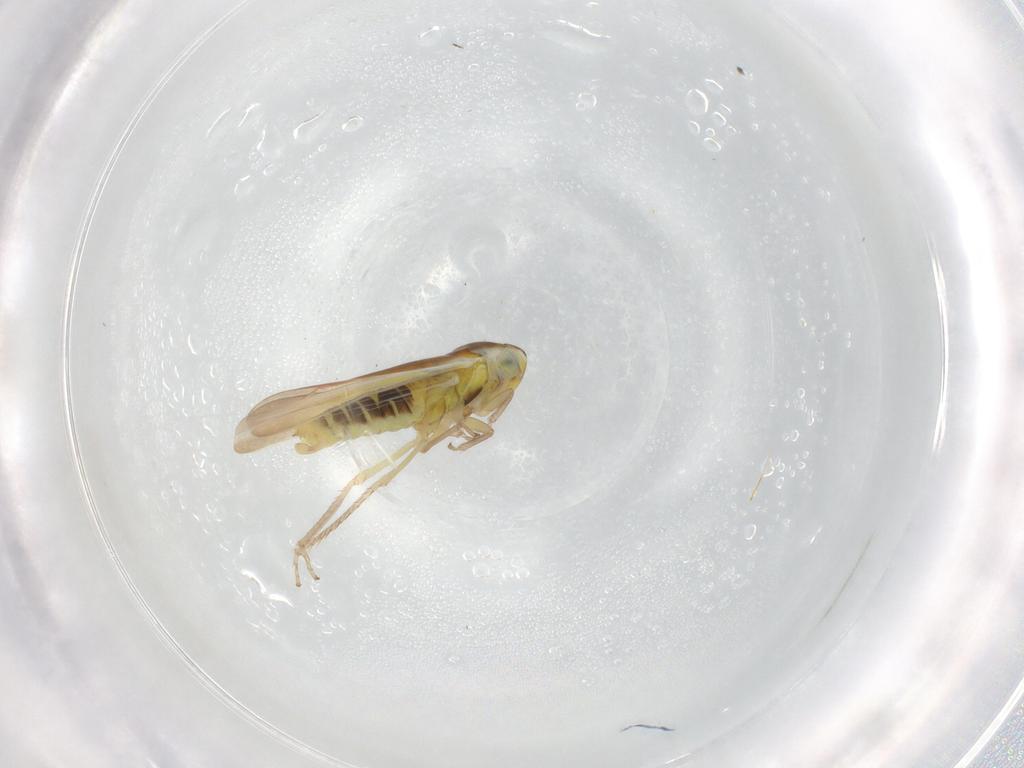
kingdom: Animalia
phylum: Arthropoda
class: Insecta
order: Hemiptera
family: Cicadellidae
